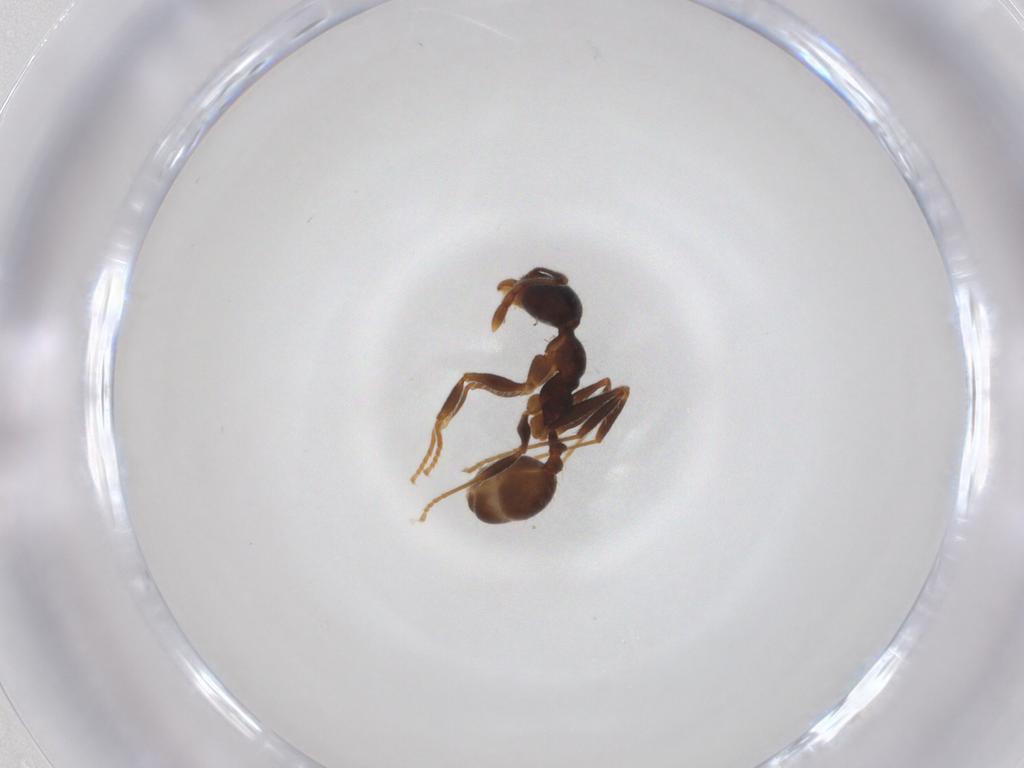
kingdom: Animalia
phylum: Arthropoda
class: Insecta
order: Hymenoptera
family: Formicidae
